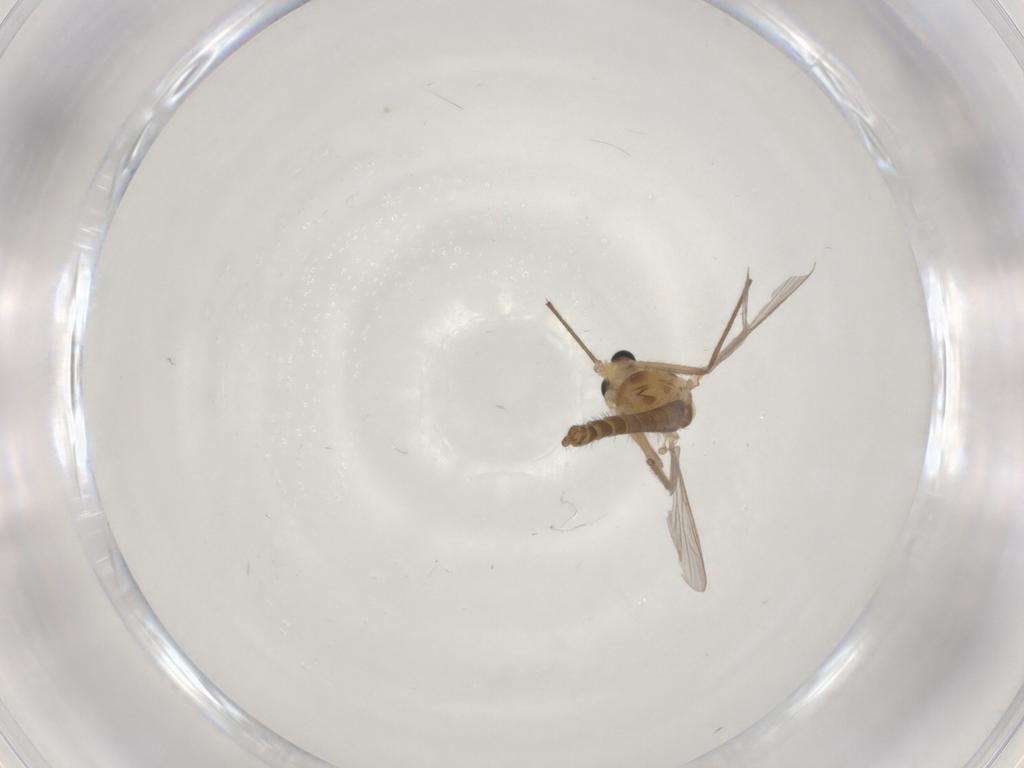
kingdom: Animalia
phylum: Arthropoda
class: Insecta
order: Diptera
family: Chironomidae
